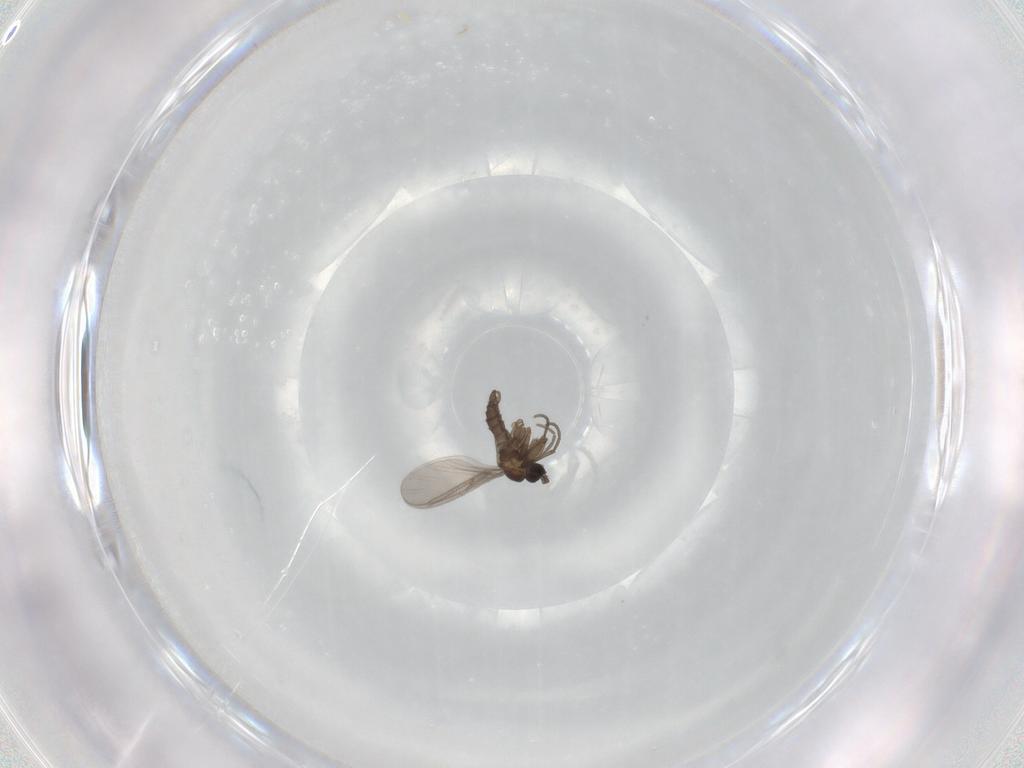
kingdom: Animalia
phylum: Arthropoda
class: Insecta
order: Diptera
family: Sciaridae
